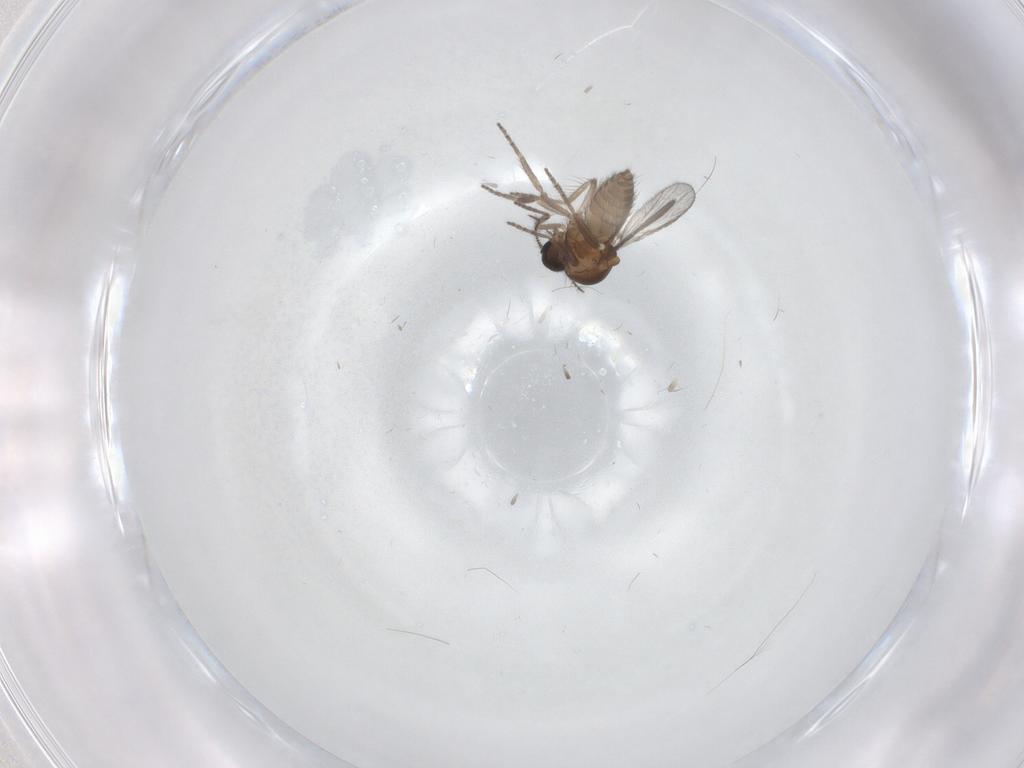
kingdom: Animalia
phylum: Arthropoda
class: Insecta
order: Diptera
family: Ceratopogonidae
